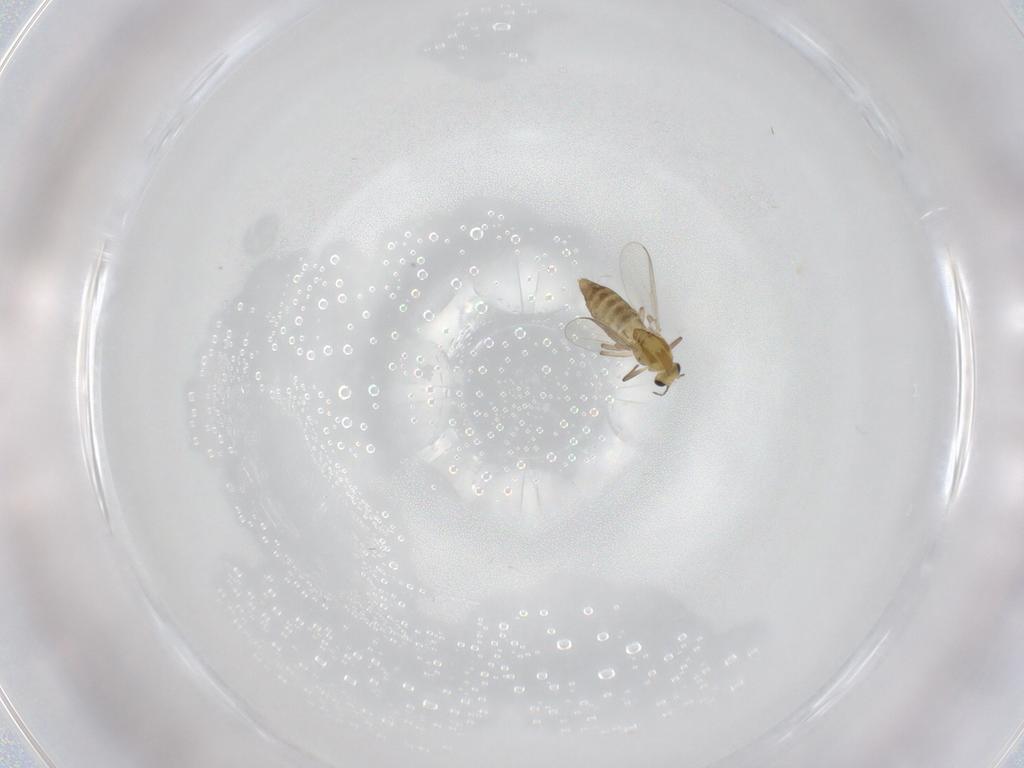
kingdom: Animalia
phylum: Arthropoda
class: Insecta
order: Diptera
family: Chironomidae
